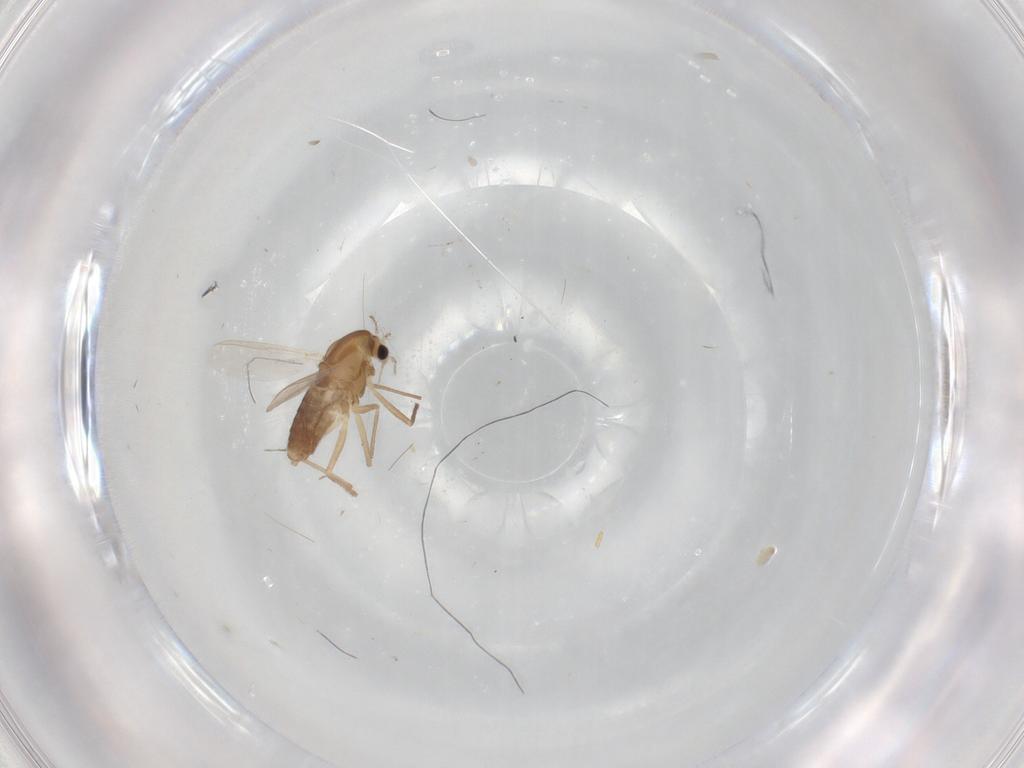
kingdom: Animalia
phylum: Arthropoda
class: Insecta
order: Diptera
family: Chironomidae
